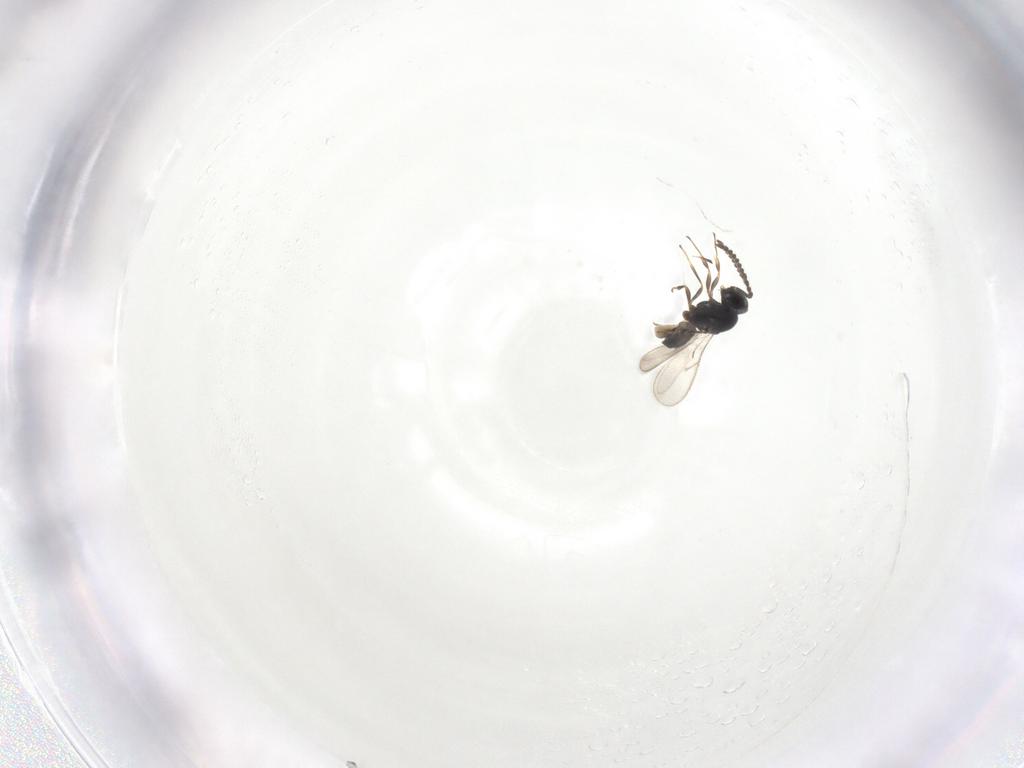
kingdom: Animalia
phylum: Arthropoda
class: Insecta
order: Hymenoptera
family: Scelionidae
